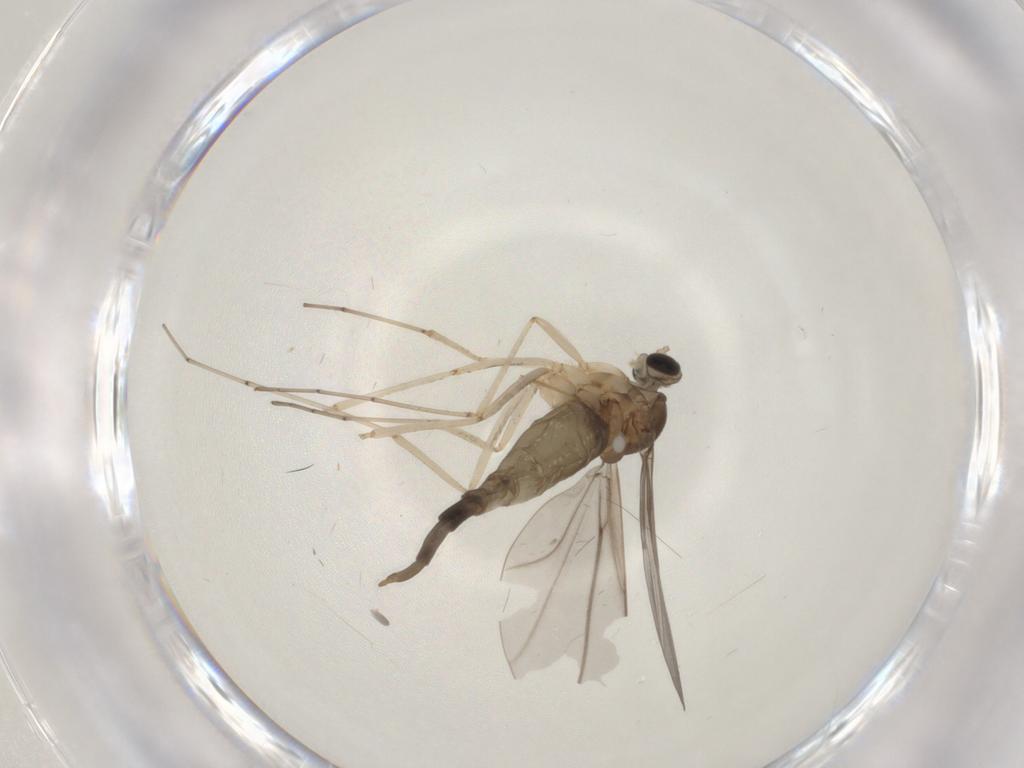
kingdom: Animalia
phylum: Arthropoda
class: Insecta
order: Diptera
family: Cecidomyiidae
